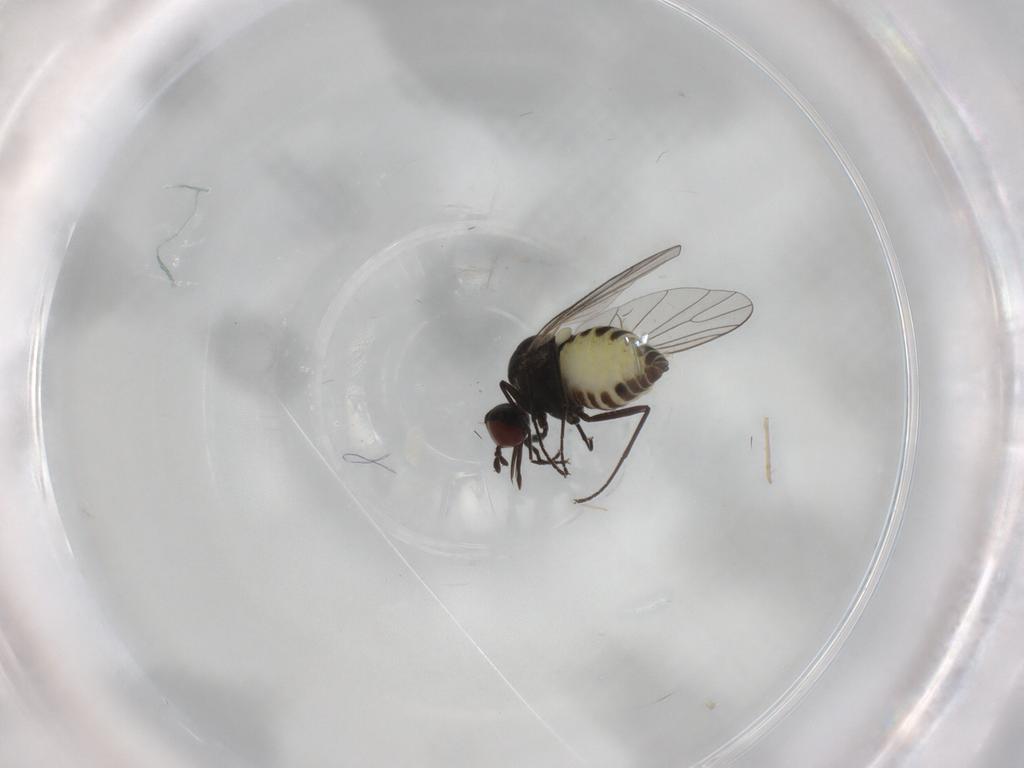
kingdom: Animalia
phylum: Arthropoda
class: Insecta
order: Diptera
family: Bombyliidae
